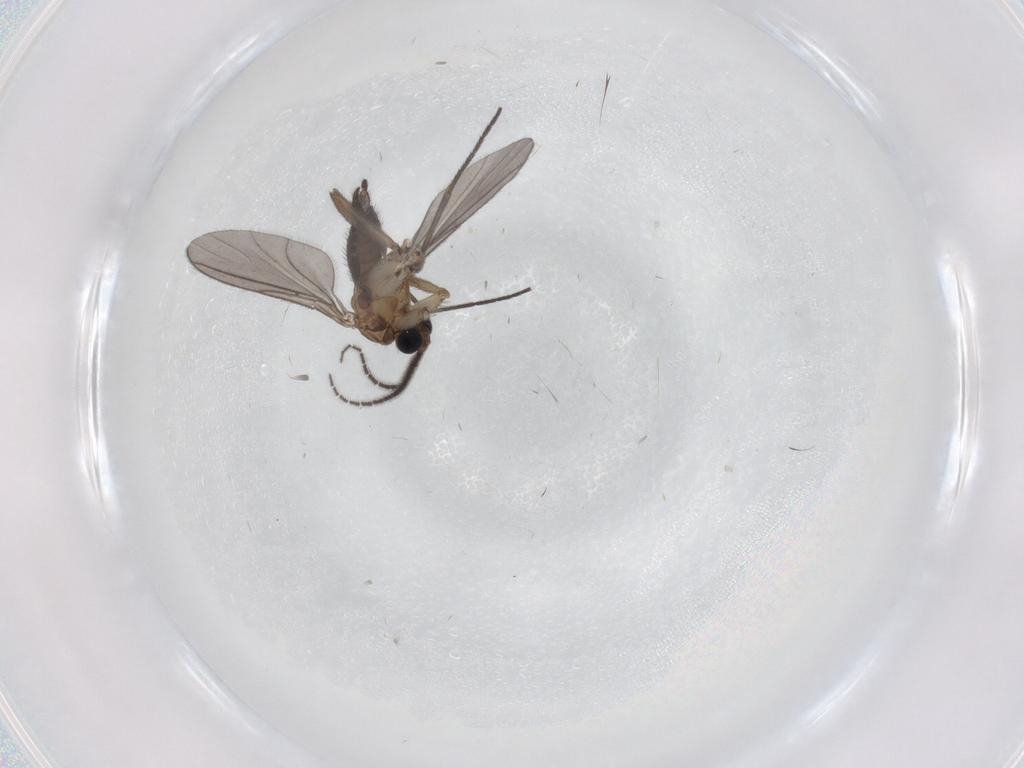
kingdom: Animalia
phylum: Arthropoda
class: Insecta
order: Diptera
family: Sciaridae
